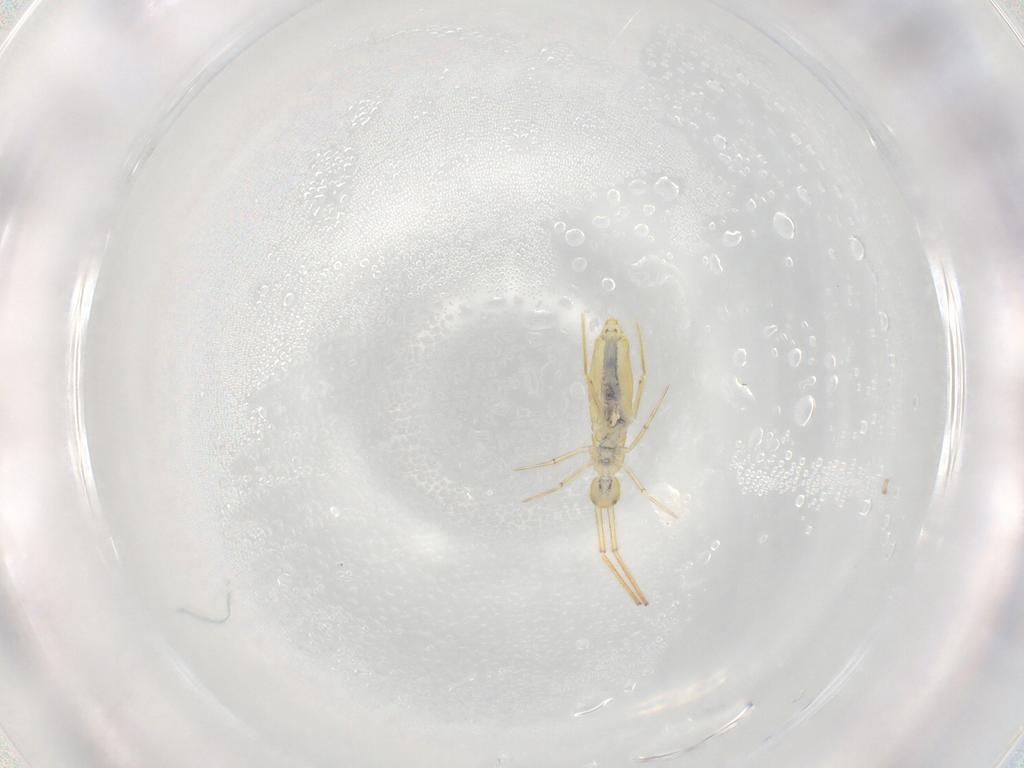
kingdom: Animalia
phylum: Arthropoda
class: Collembola
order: Entomobryomorpha
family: Paronellidae
